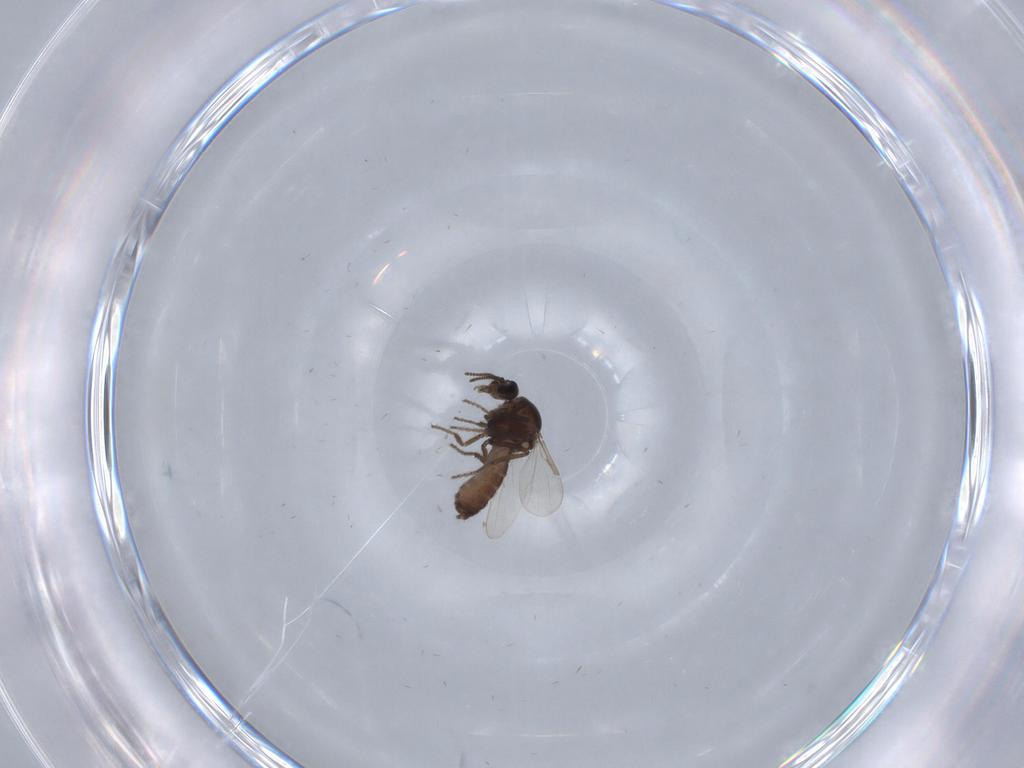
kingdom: Animalia
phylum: Arthropoda
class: Insecta
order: Diptera
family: Ceratopogonidae
